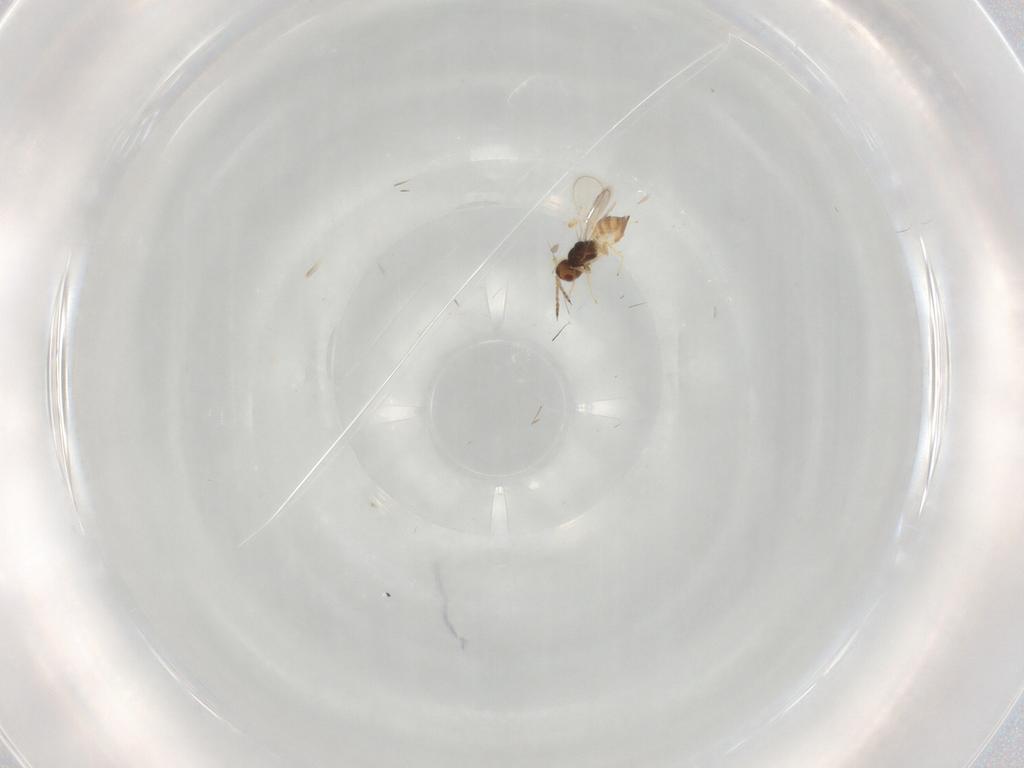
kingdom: Animalia
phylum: Arthropoda
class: Insecta
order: Hymenoptera
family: Eulophidae
